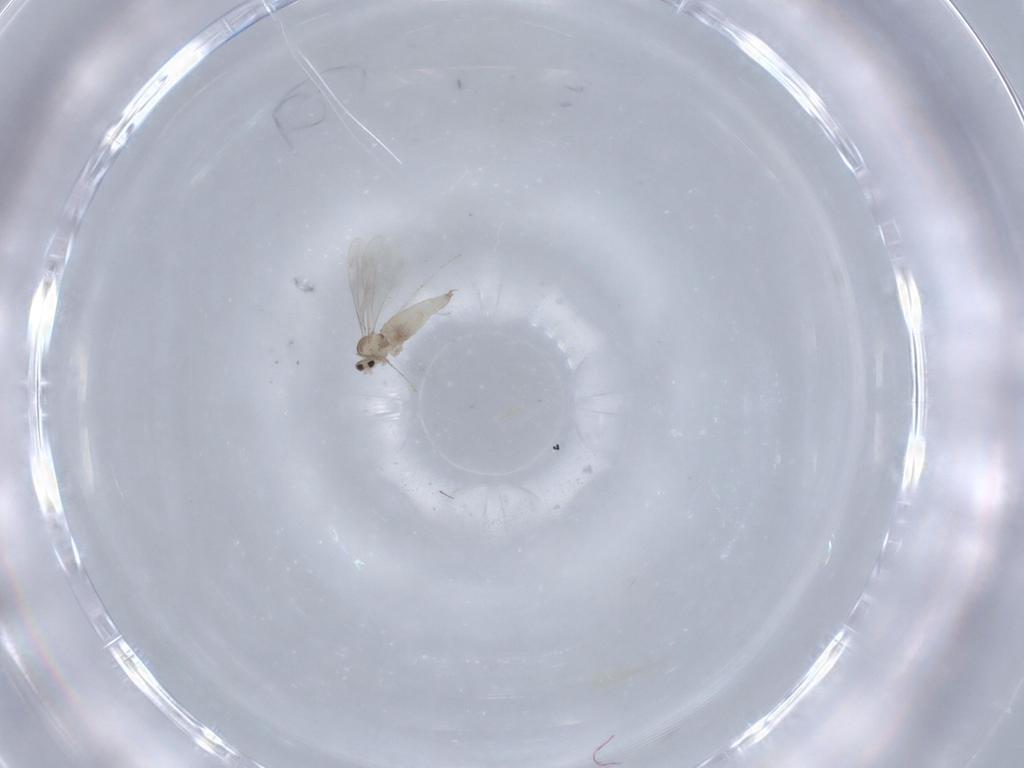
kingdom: Animalia
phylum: Arthropoda
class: Insecta
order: Diptera
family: Cecidomyiidae
